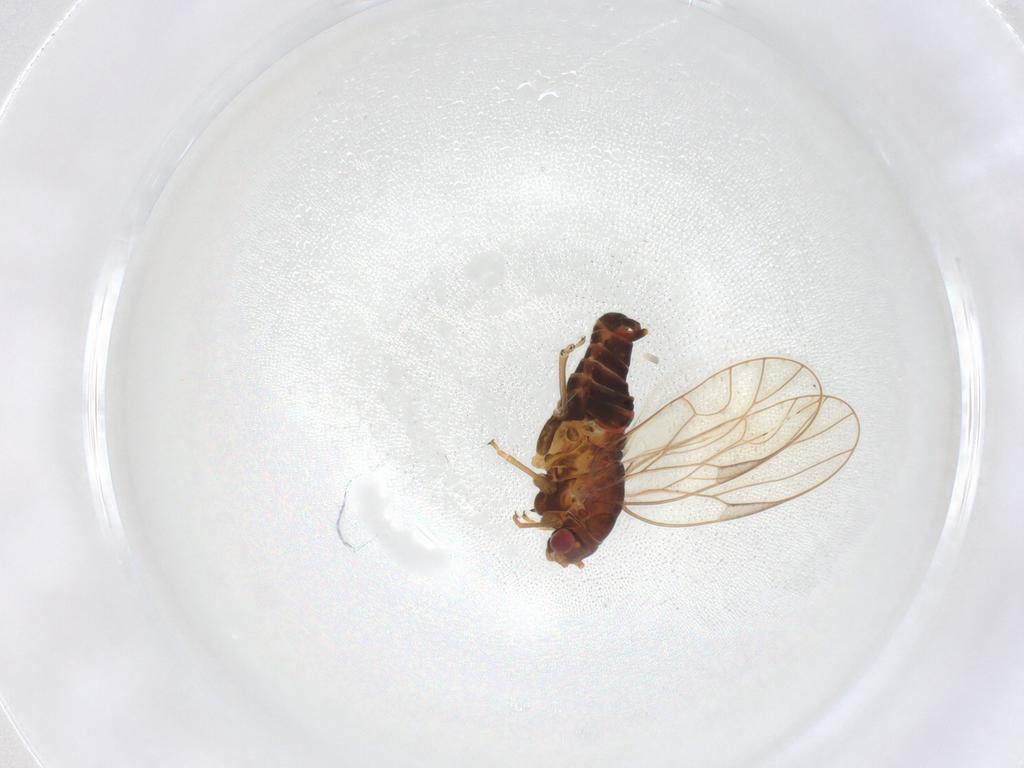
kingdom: Animalia
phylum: Arthropoda
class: Insecta
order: Hemiptera
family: Psyllidae
